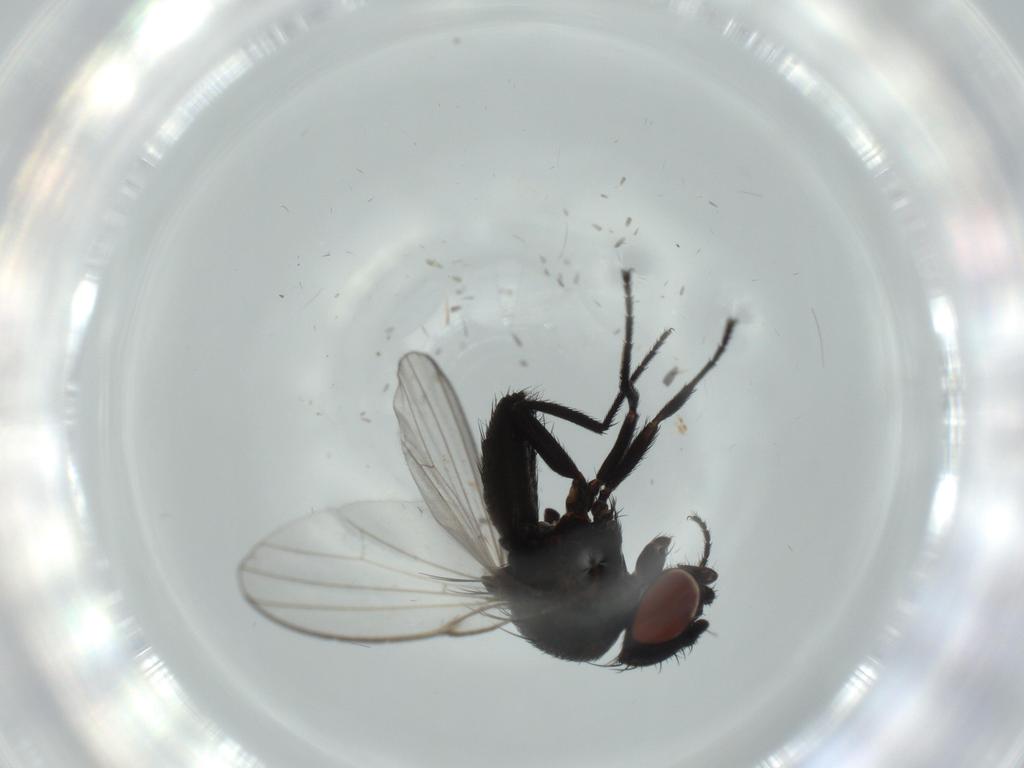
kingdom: Animalia
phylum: Arthropoda
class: Insecta
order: Diptera
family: Milichiidae
